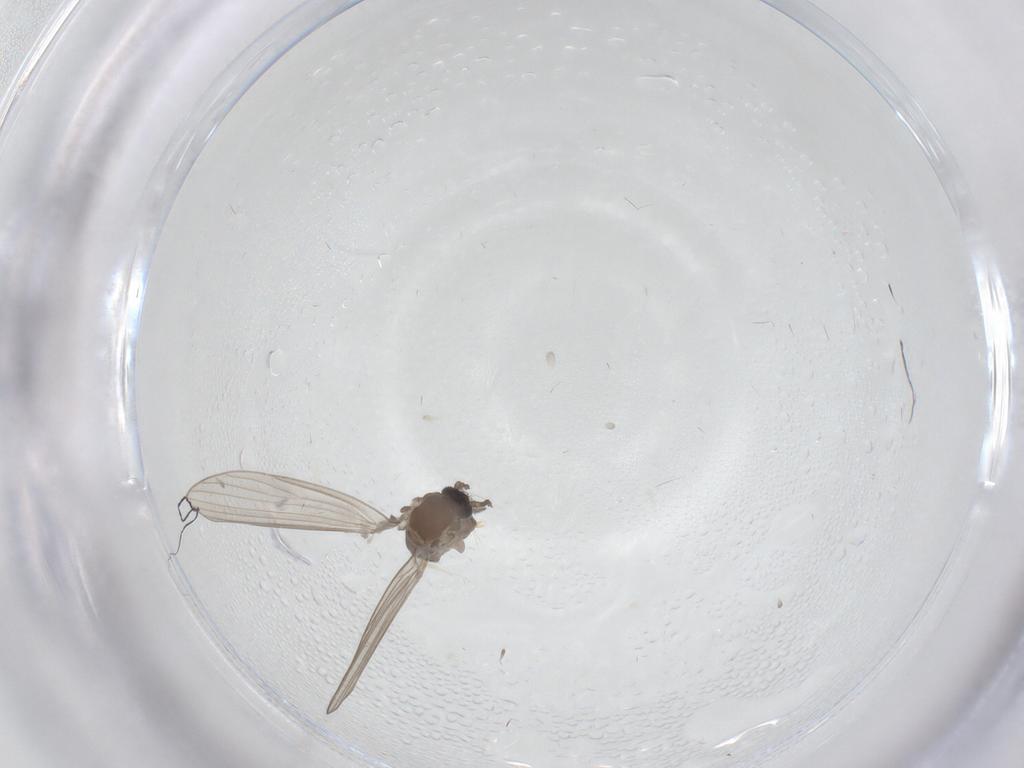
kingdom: Animalia
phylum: Arthropoda
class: Insecta
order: Diptera
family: Psychodidae
